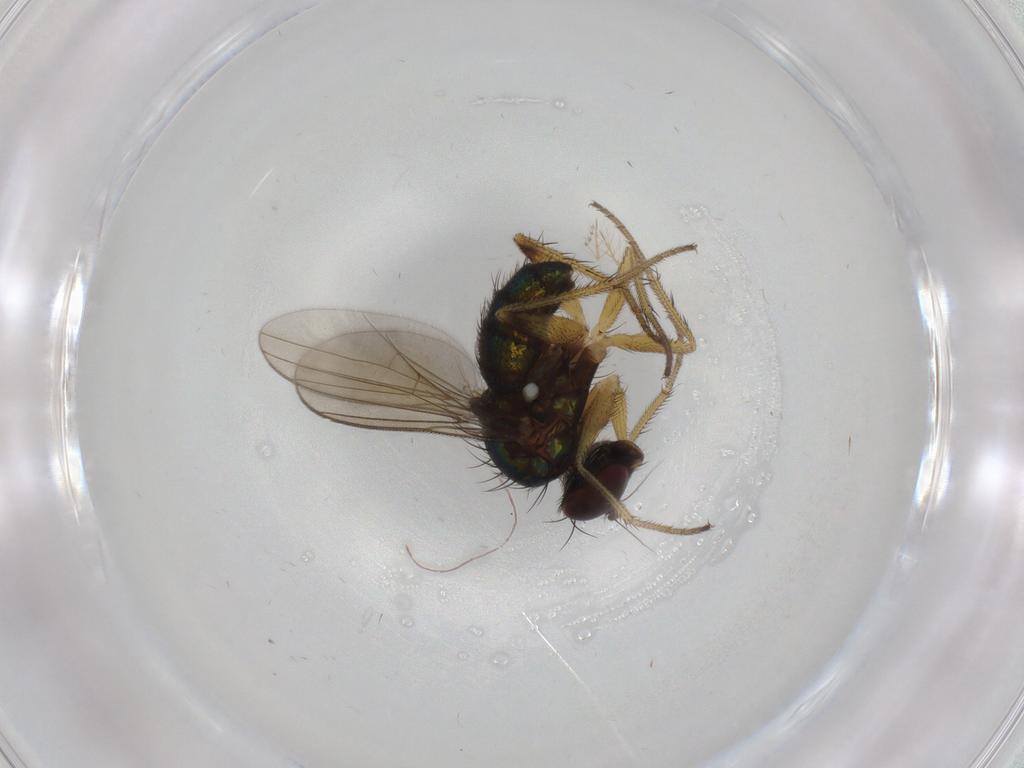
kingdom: Animalia
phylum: Arthropoda
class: Insecta
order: Diptera
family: Dolichopodidae
